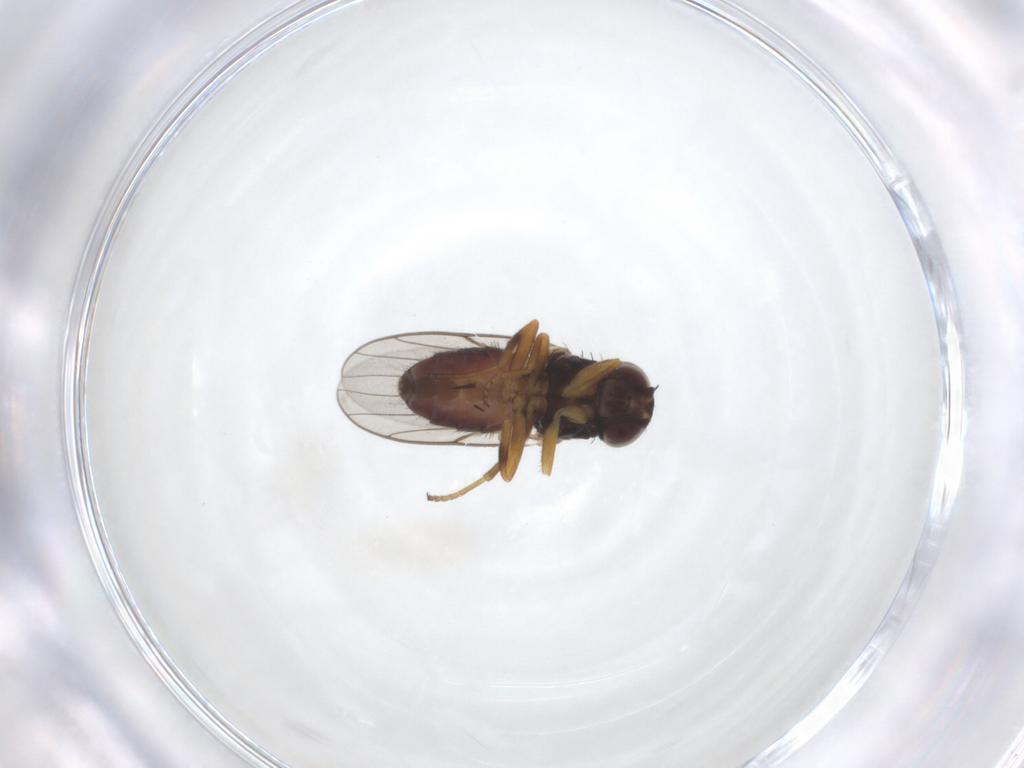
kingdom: Animalia
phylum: Arthropoda
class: Insecta
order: Diptera
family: Chloropidae
